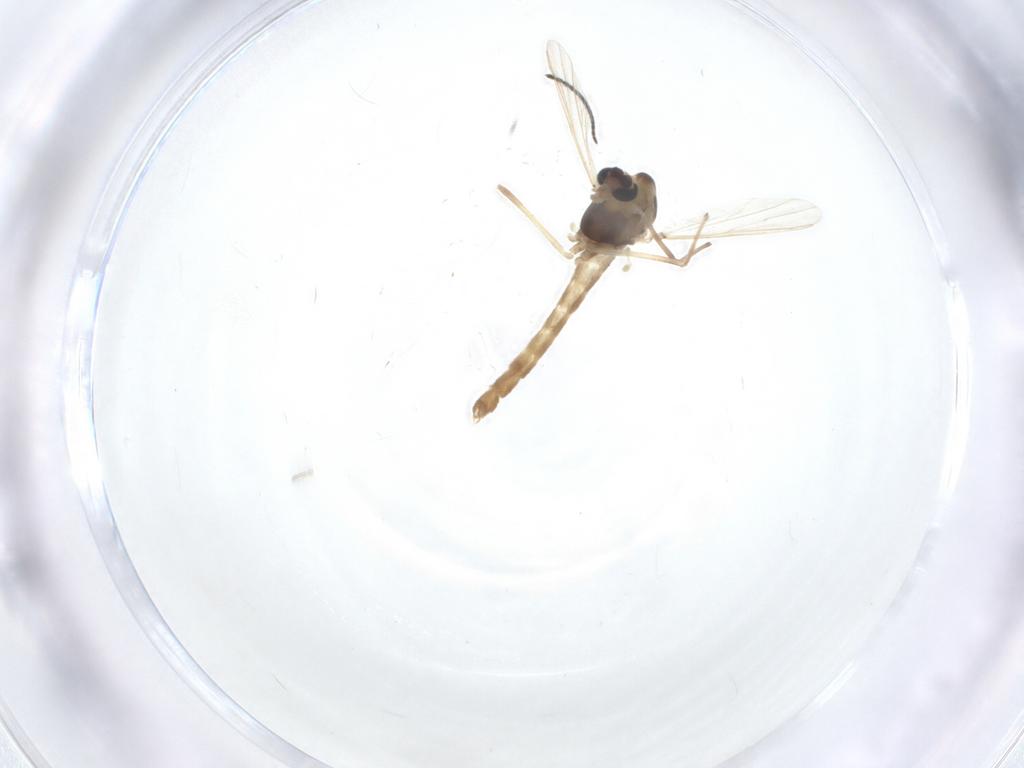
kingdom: Animalia
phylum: Arthropoda
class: Insecta
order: Diptera
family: Chironomidae
